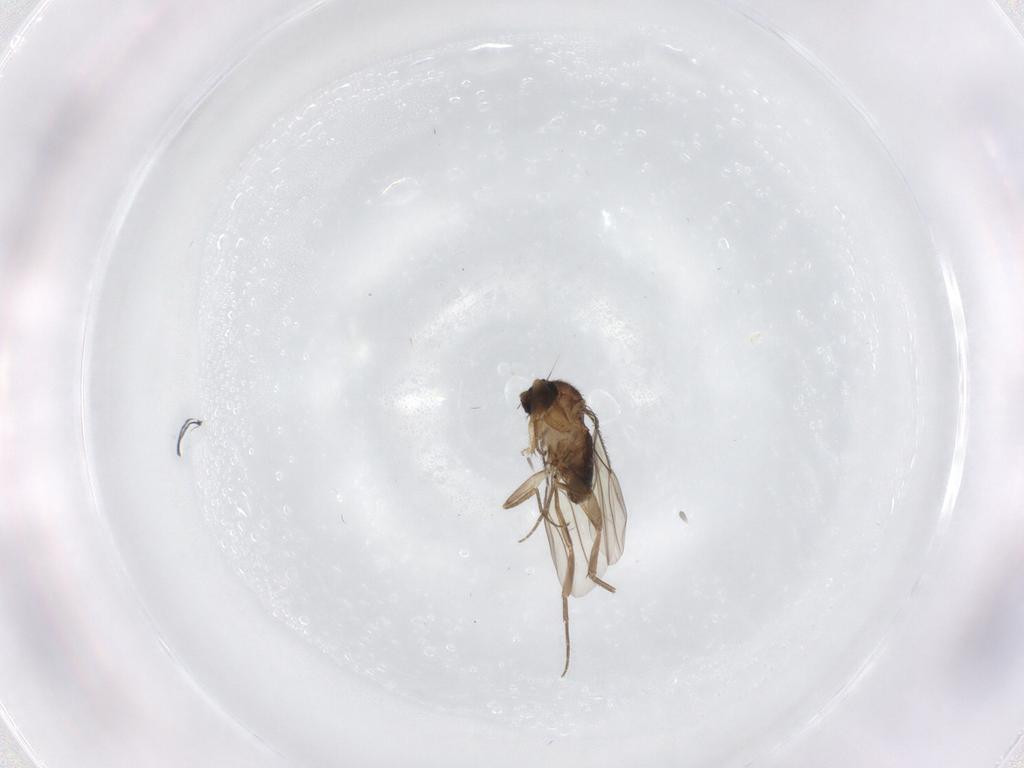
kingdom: Animalia
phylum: Arthropoda
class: Insecta
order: Diptera
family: Phoridae
